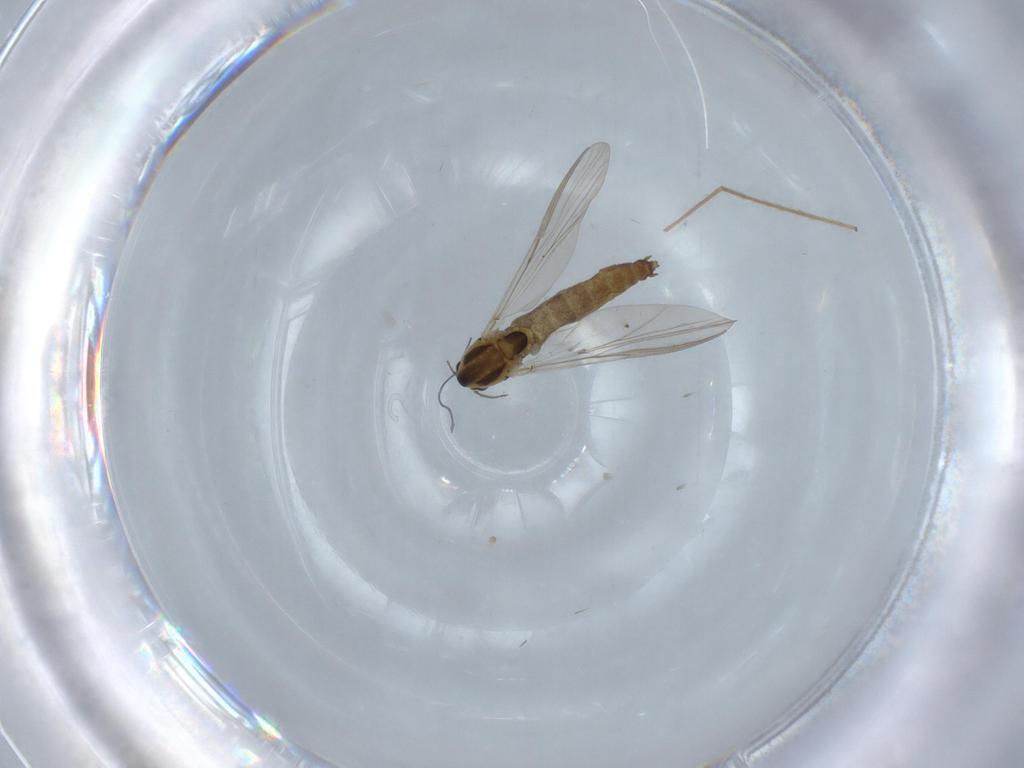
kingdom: Animalia
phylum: Arthropoda
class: Insecta
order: Diptera
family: Chironomidae
